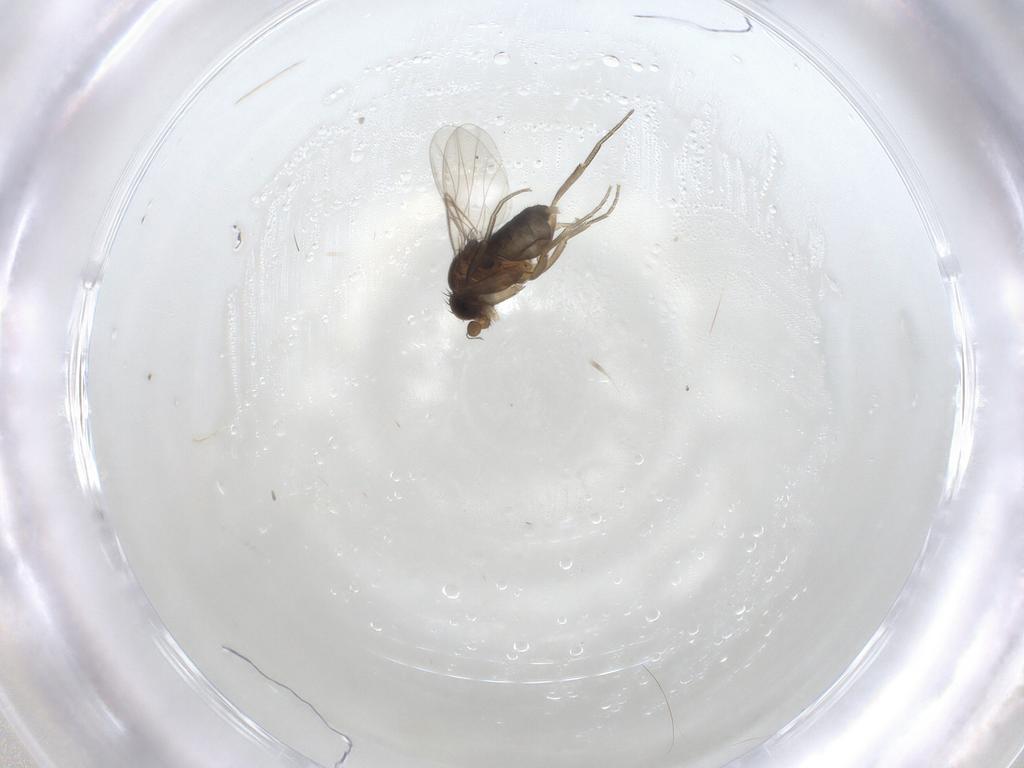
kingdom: Animalia
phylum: Arthropoda
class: Insecta
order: Diptera
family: Phoridae
